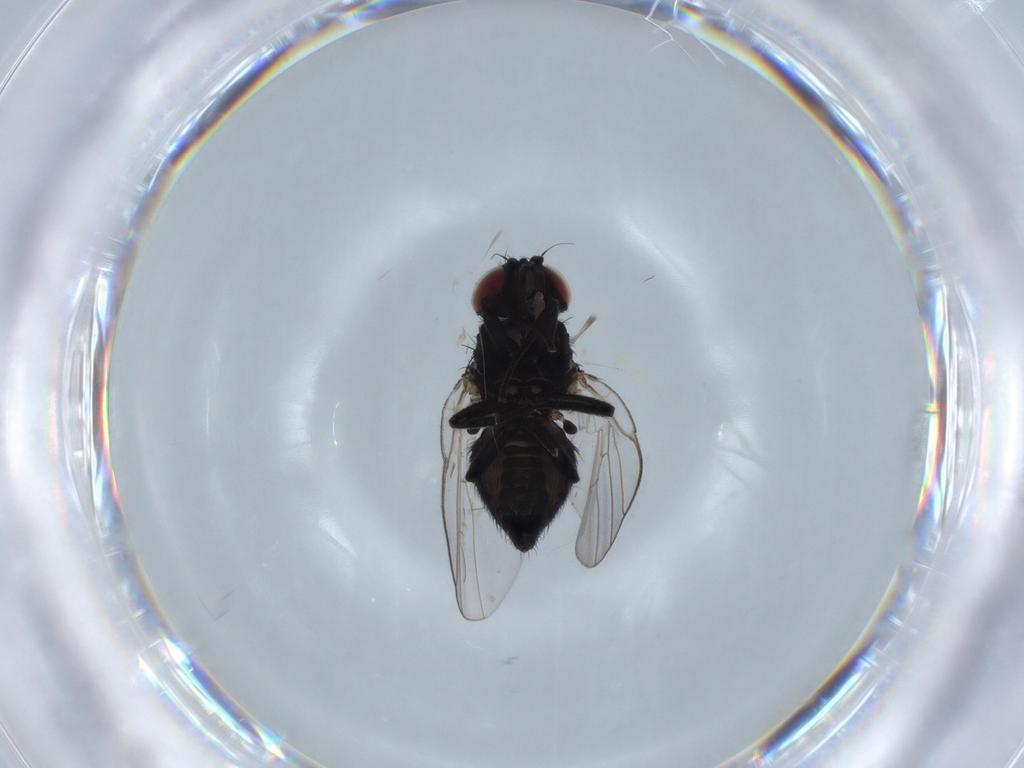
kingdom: Animalia
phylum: Arthropoda
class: Insecta
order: Diptera
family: Agromyzidae
